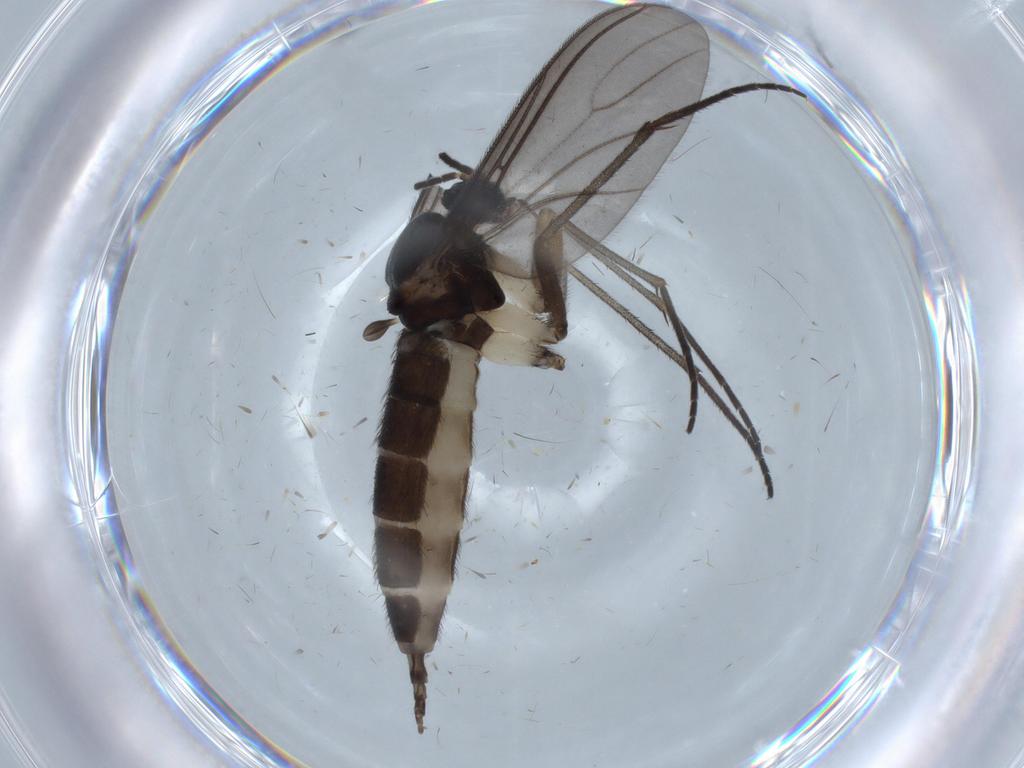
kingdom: Animalia
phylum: Arthropoda
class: Insecta
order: Diptera
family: Sciaridae
